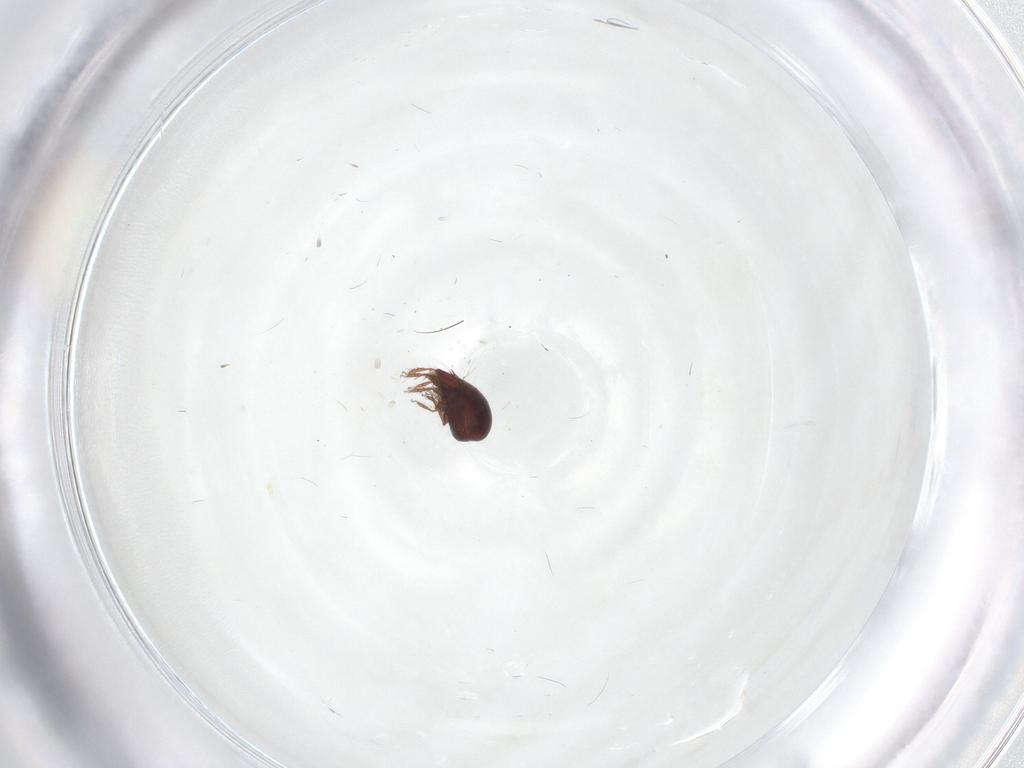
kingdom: Animalia
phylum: Arthropoda
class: Arachnida
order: Sarcoptiformes
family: Ceratozetidae
